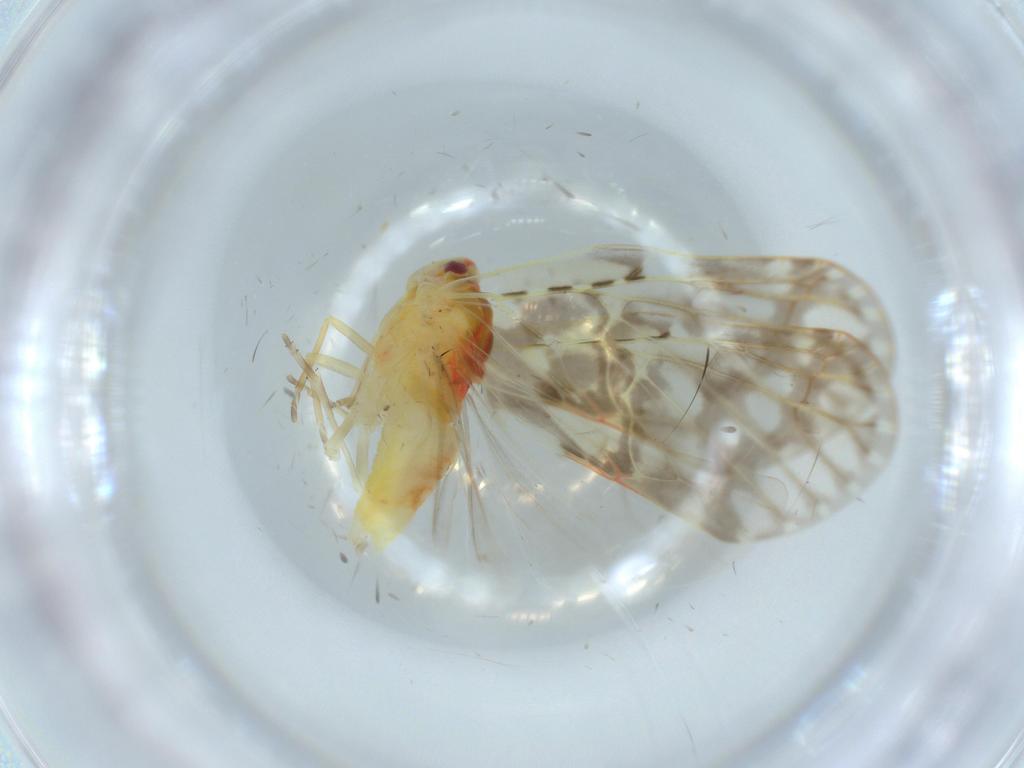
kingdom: Animalia
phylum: Arthropoda
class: Insecta
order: Hemiptera
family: Derbidae
